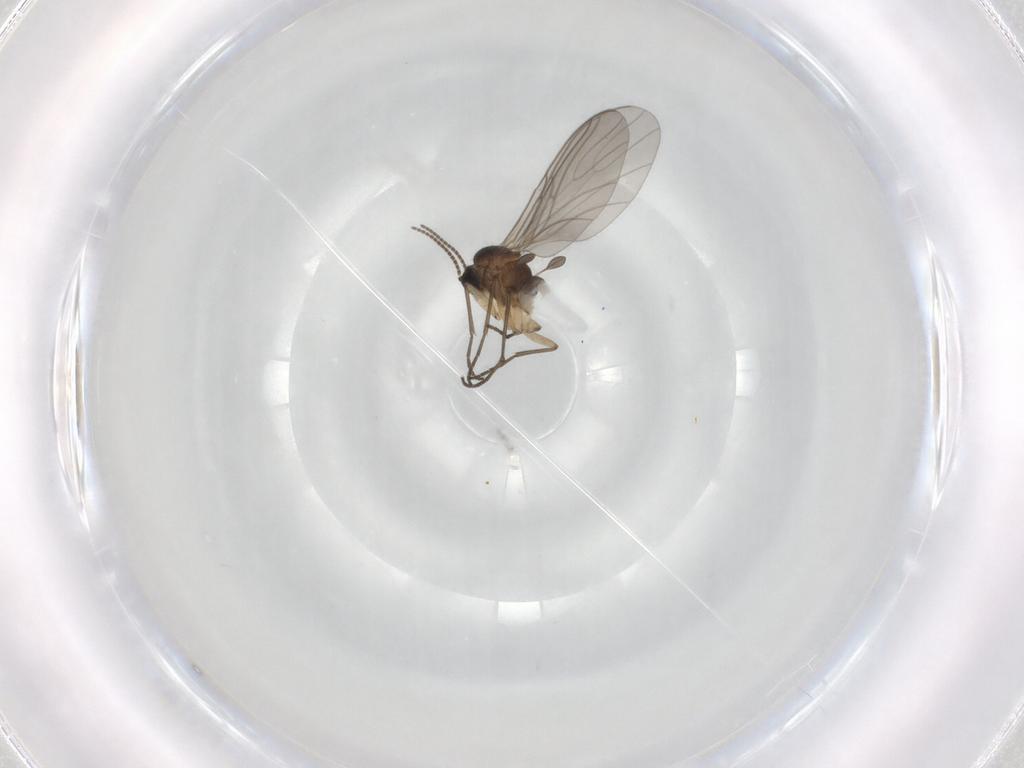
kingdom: Animalia
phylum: Arthropoda
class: Insecta
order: Diptera
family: Sciaridae
